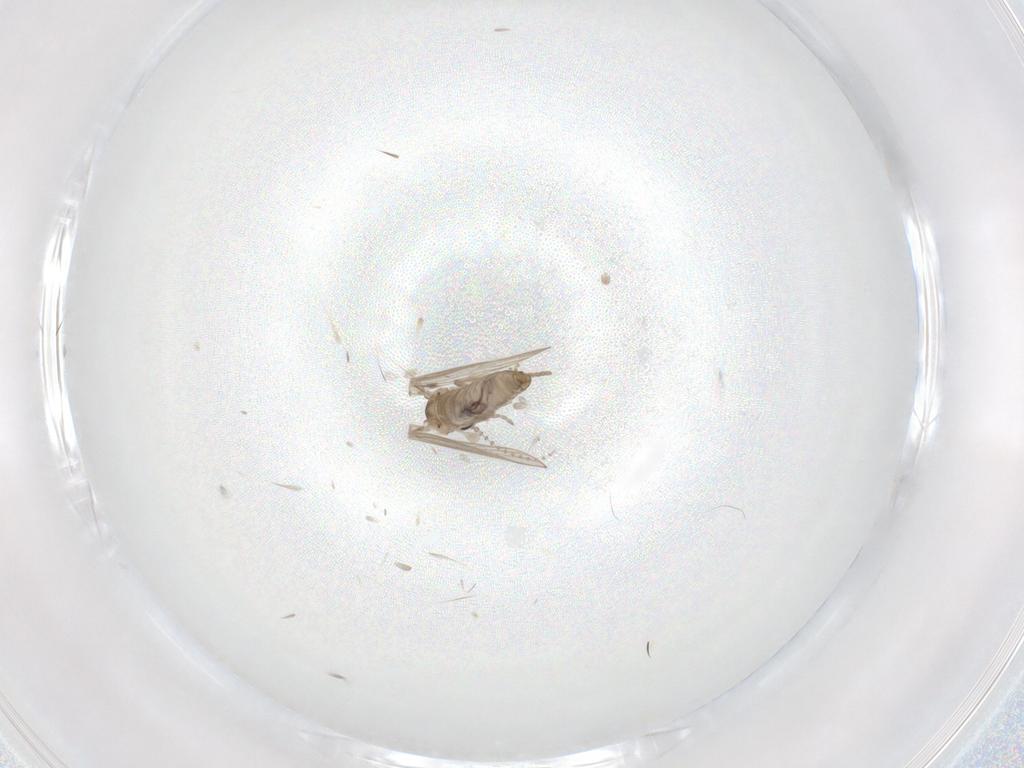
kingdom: Animalia
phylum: Arthropoda
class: Insecta
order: Diptera
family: Psychodidae
